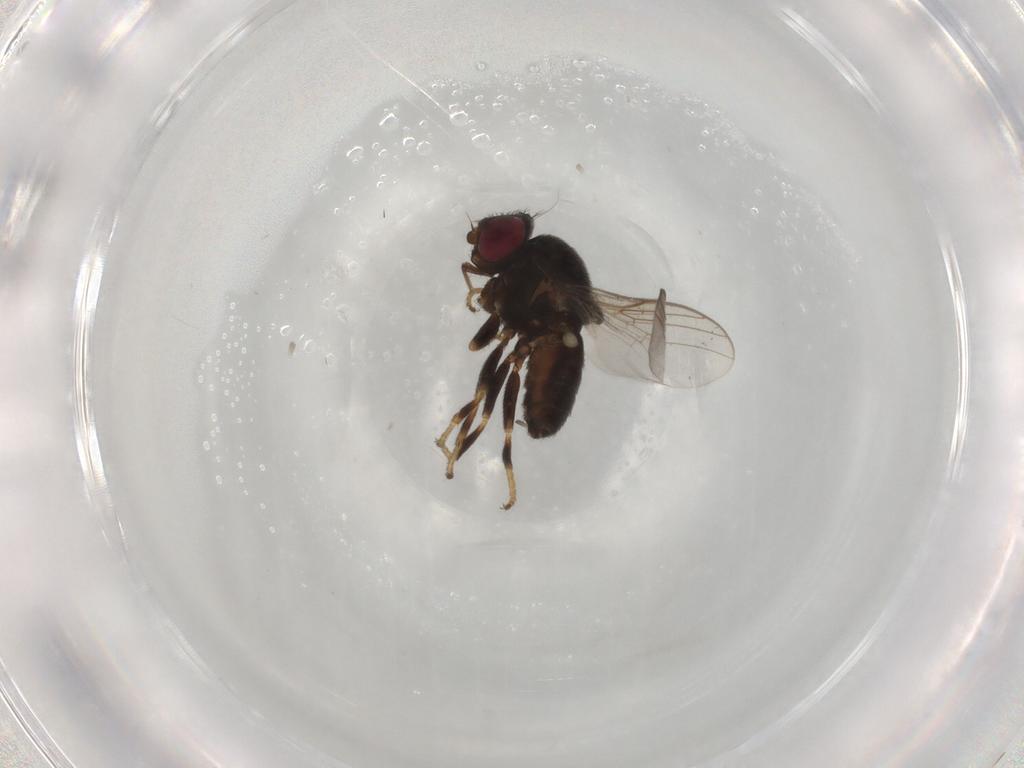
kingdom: Animalia
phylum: Arthropoda
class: Insecta
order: Diptera
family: Chloropidae
